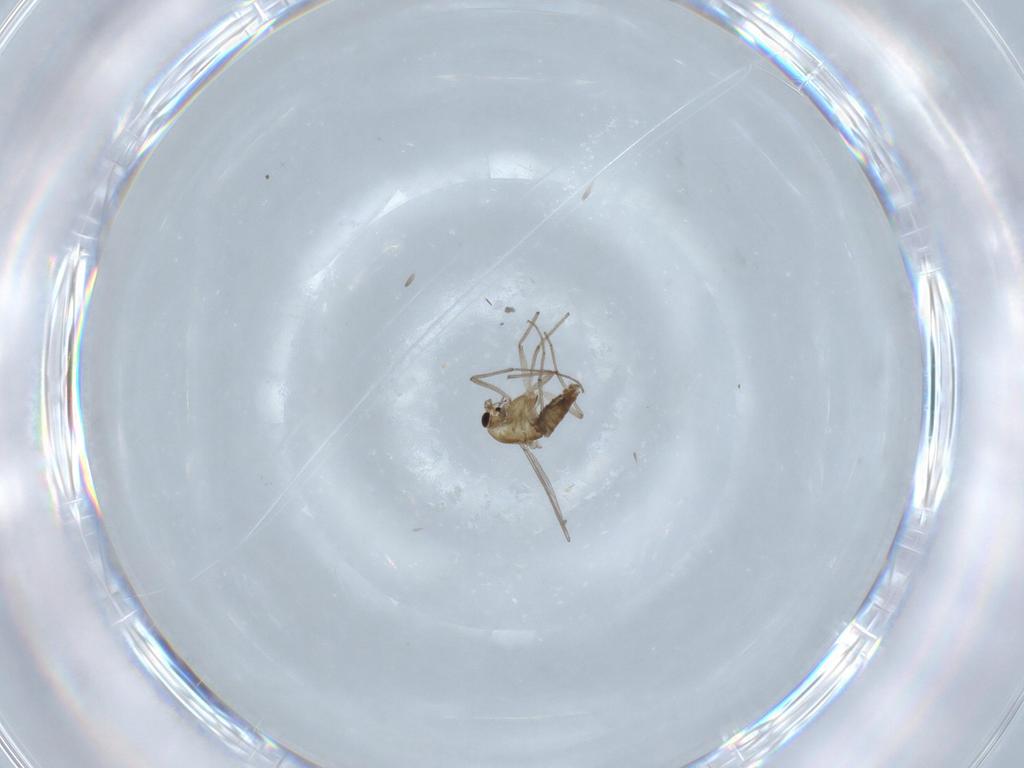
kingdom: Animalia
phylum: Arthropoda
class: Insecta
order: Diptera
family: Chironomidae
